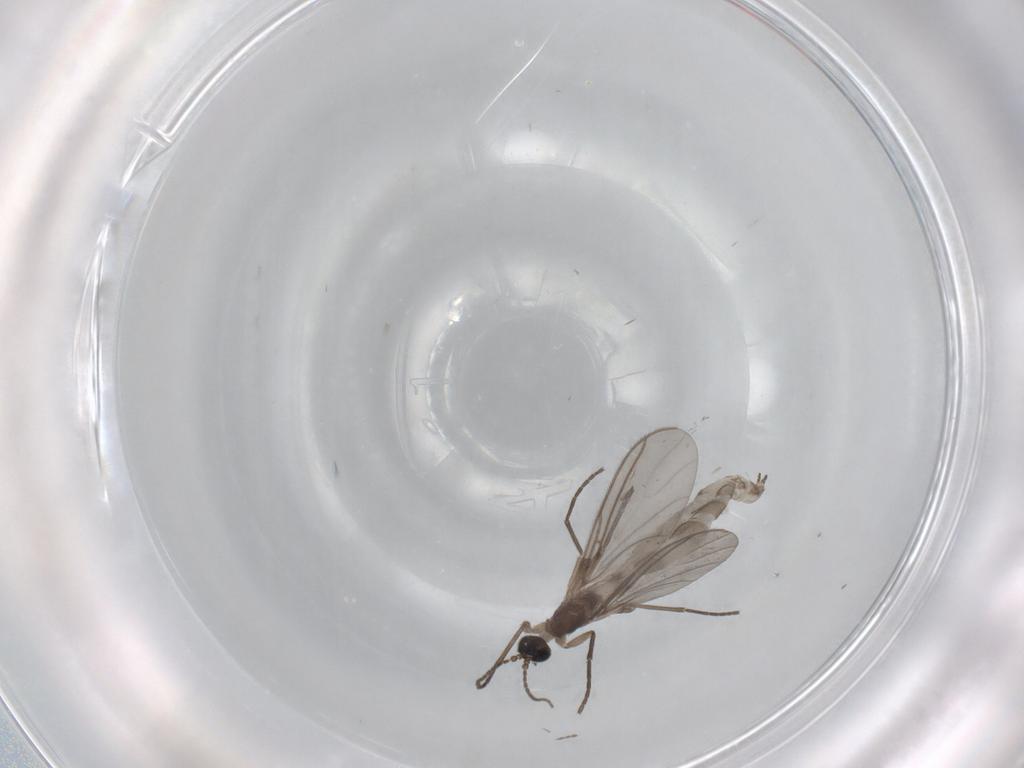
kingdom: Animalia
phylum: Arthropoda
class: Insecta
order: Diptera
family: Sciaridae
